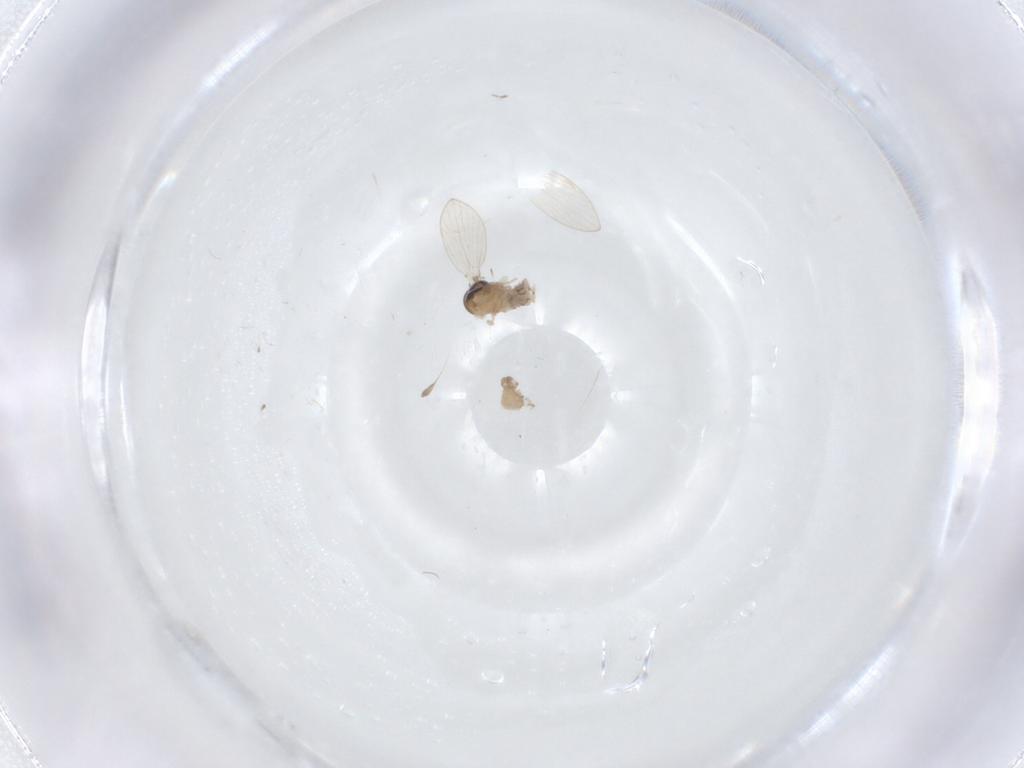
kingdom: Animalia
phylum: Arthropoda
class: Insecta
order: Diptera
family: Psychodidae
